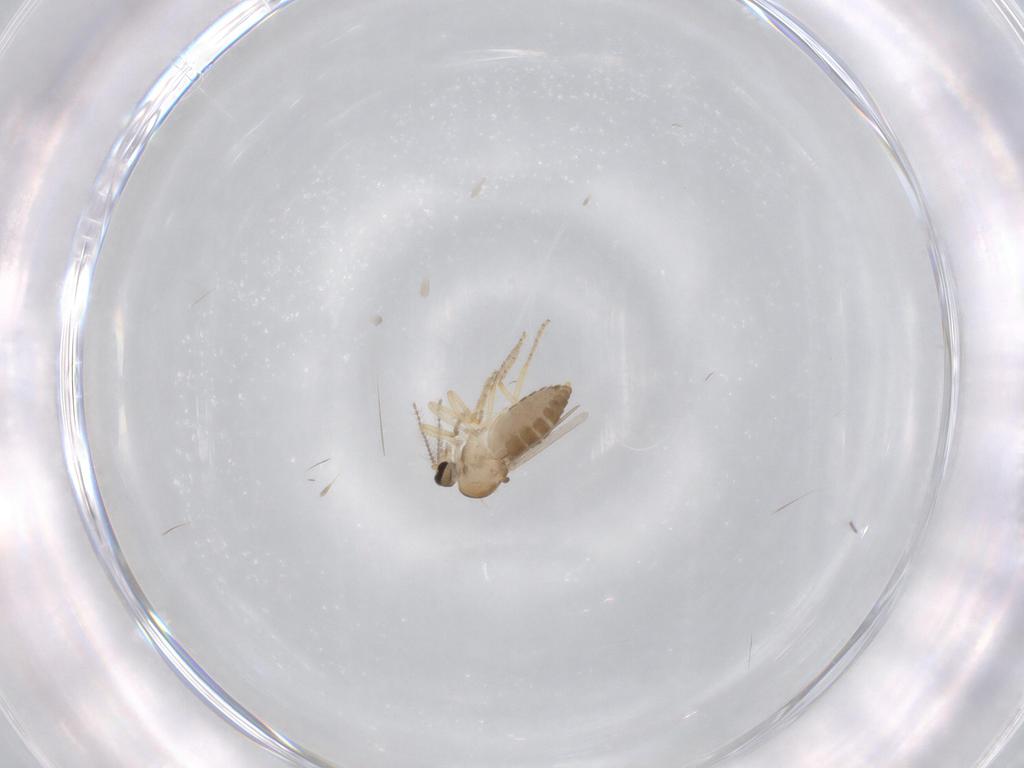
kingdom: Animalia
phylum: Arthropoda
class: Insecta
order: Diptera
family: Ceratopogonidae
